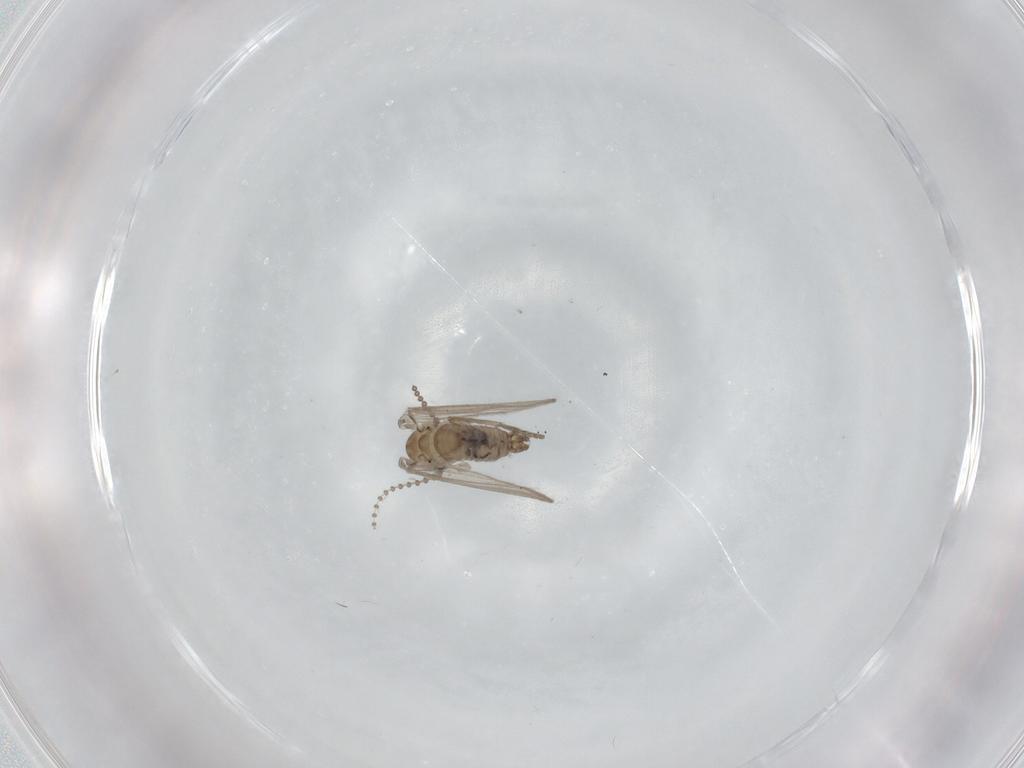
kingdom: Animalia
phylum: Arthropoda
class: Insecta
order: Diptera
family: Psychodidae
